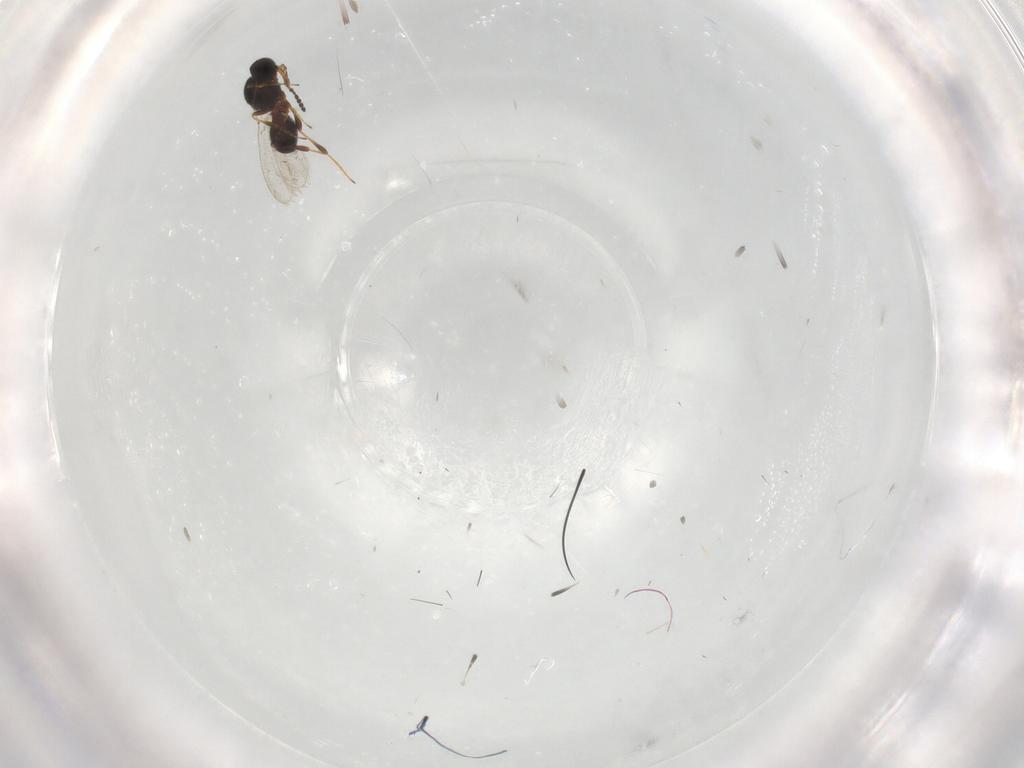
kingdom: Animalia
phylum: Arthropoda
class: Insecta
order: Hymenoptera
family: Platygastridae
